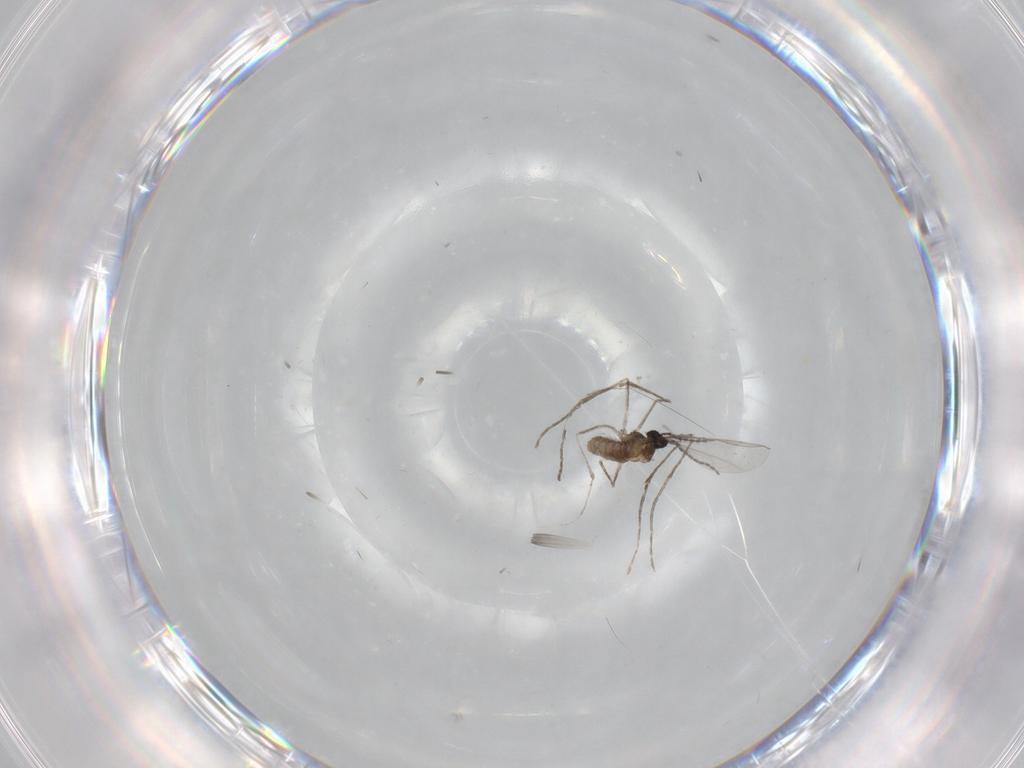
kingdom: Animalia
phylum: Arthropoda
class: Insecta
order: Diptera
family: Cecidomyiidae
